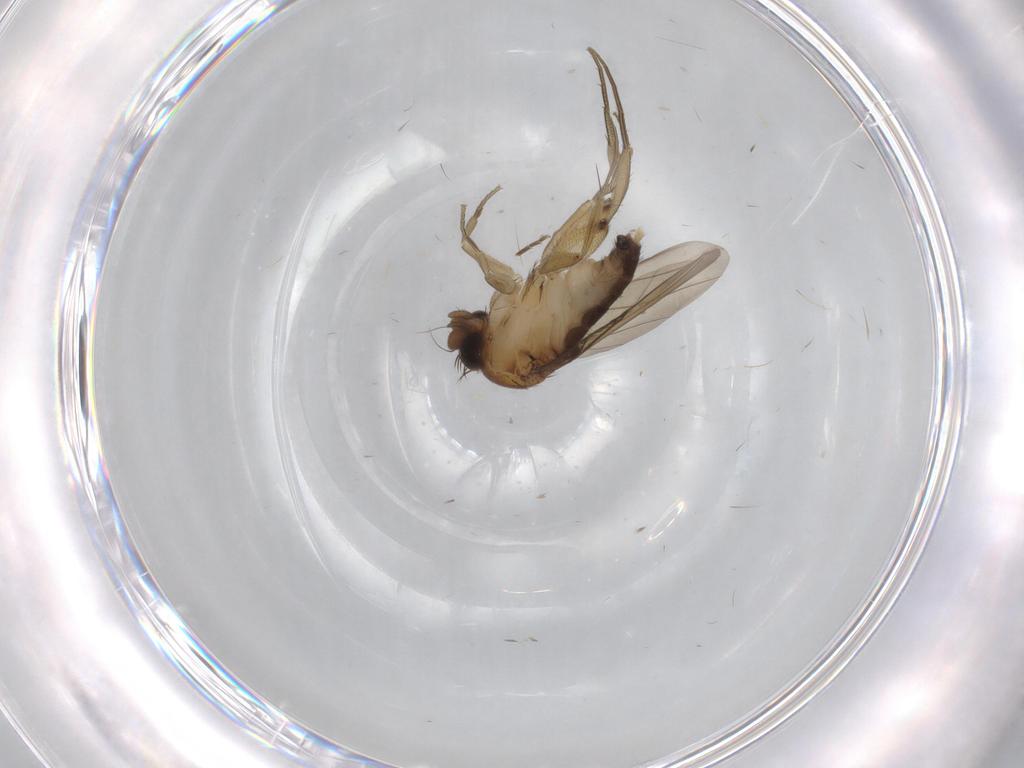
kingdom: Animalia
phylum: Arthropoda
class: Insecta
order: Diptera
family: Phoridae
